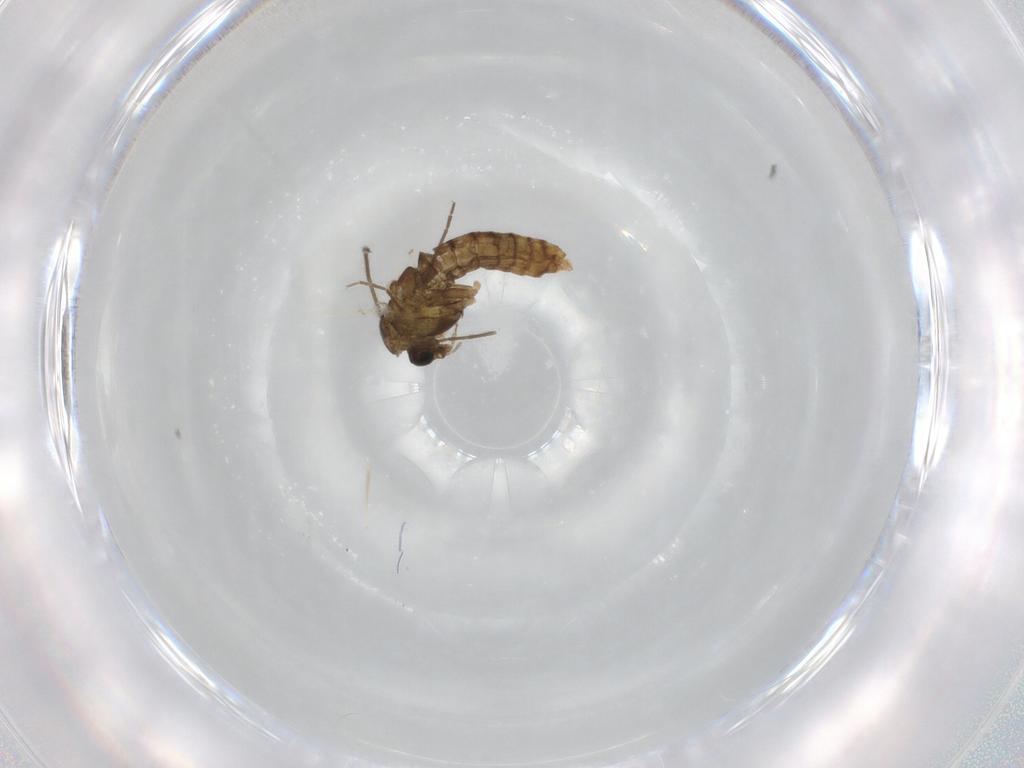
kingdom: Animalia
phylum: Arthropoda
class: Insecta
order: Diptera
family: Chironomidae
